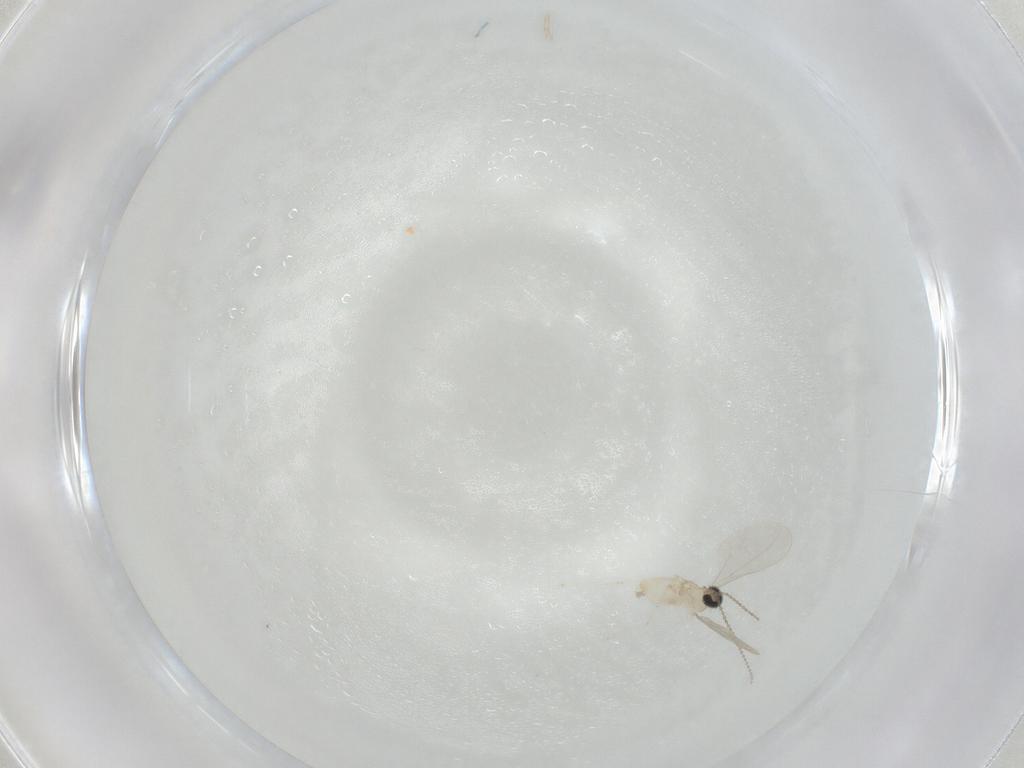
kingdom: Animalia
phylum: Arthropoda
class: Insecta
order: Diptera
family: Cecidomyiidae
